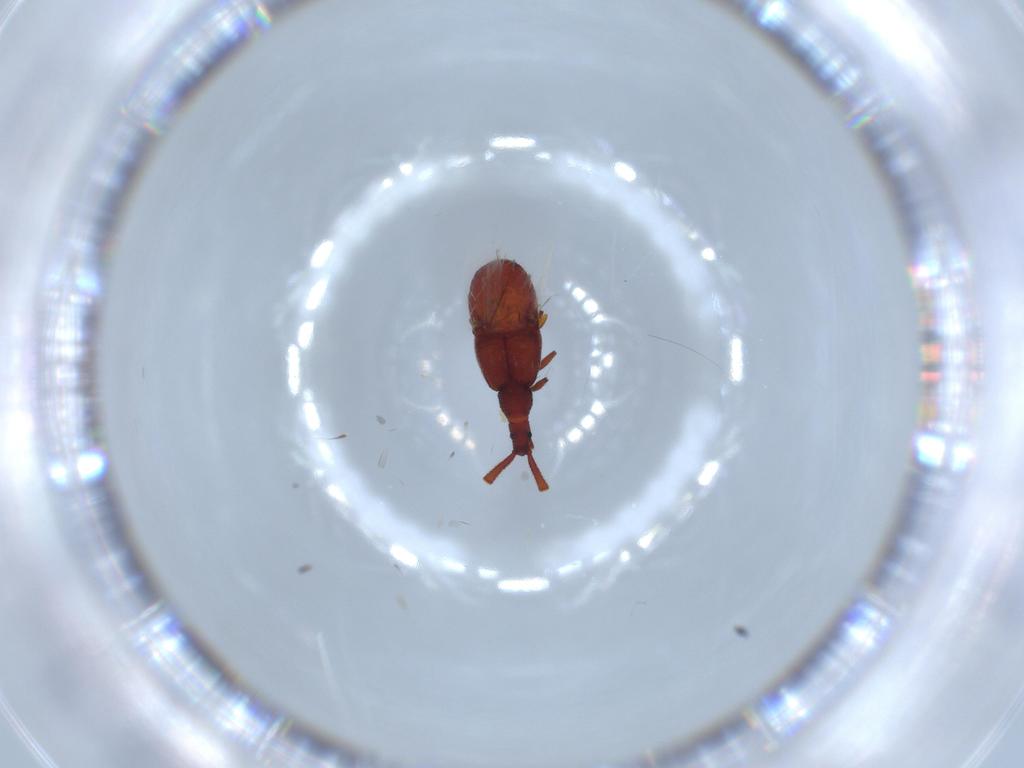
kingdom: Animalia
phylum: Arthropoda
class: Insecta
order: Coleoptera
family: Staphylinidae
